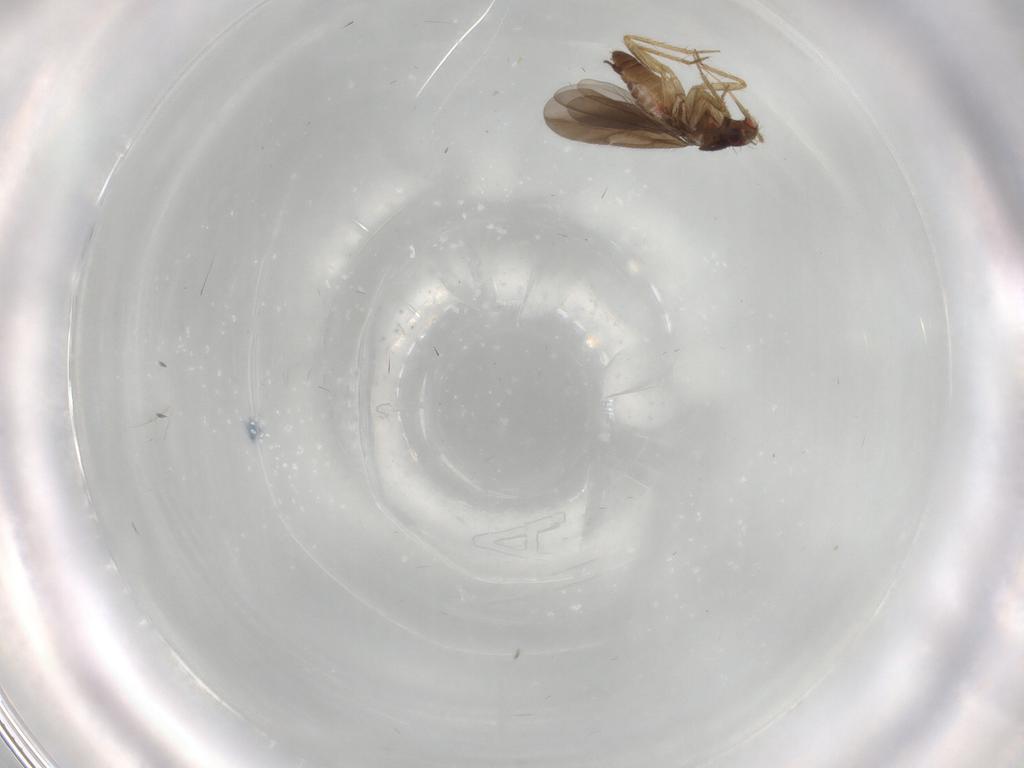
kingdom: Animalia
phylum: Arthropoda
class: Insecta
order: Hemiptera
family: Ceratocombidae
